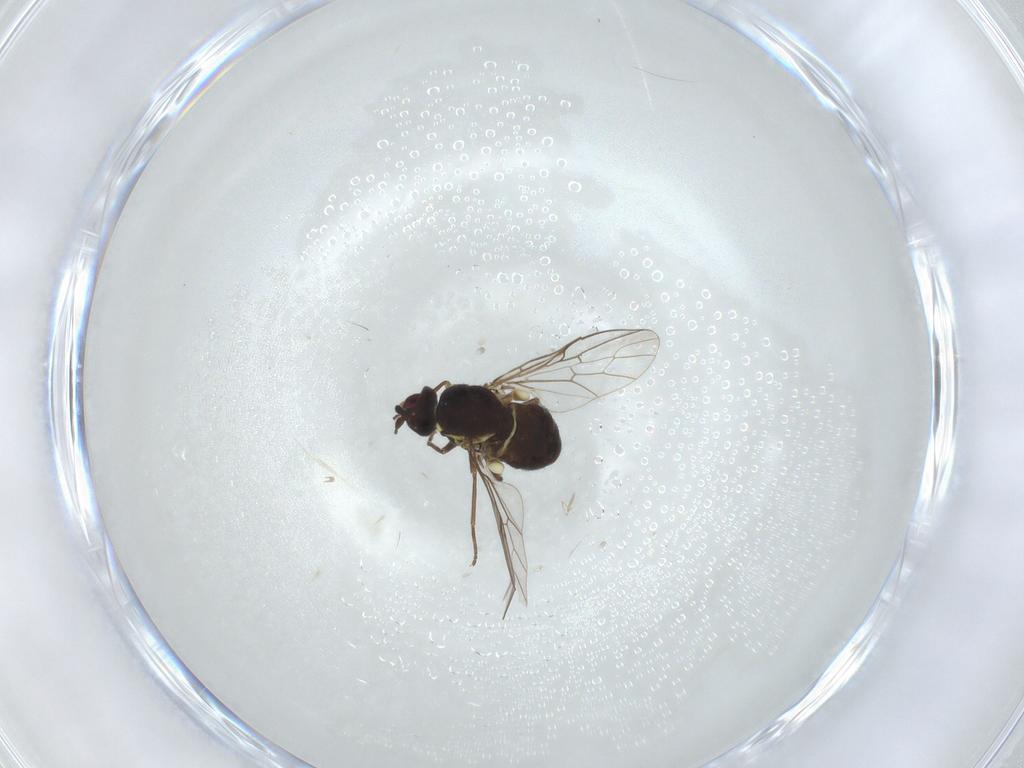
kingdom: Animalia
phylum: Arthropoda
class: Insecta
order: Diptera
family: Bombyliidae
